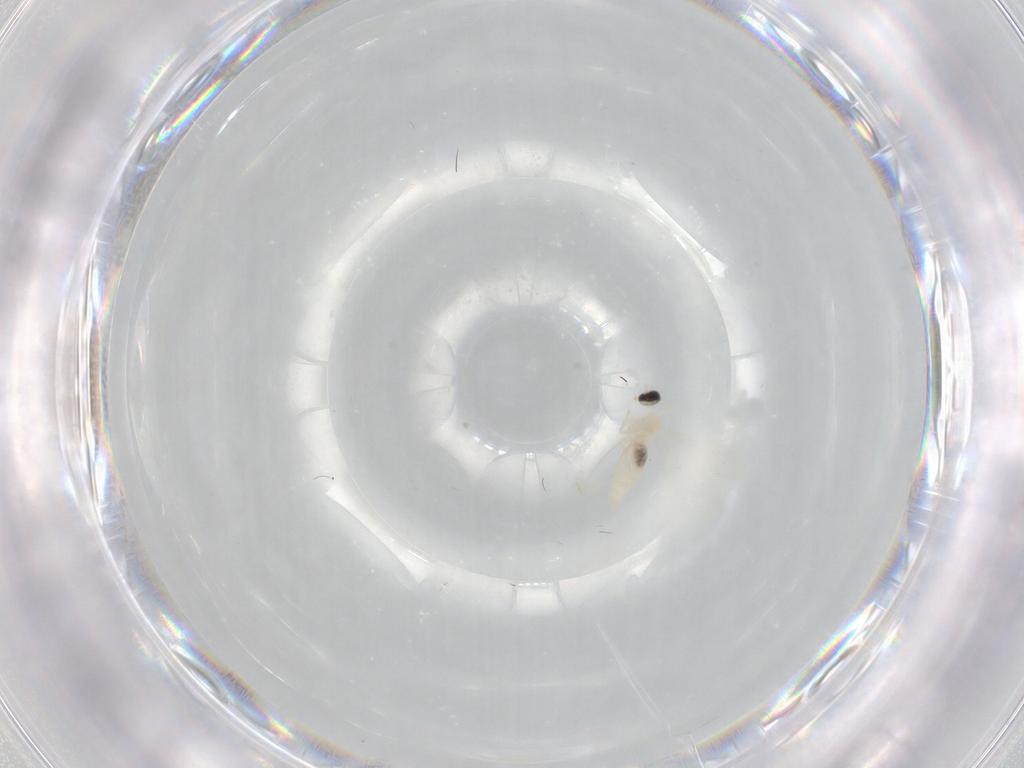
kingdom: Animalia
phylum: Arthropoda
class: Insecta
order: Diptera
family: Cecidomyiidae
